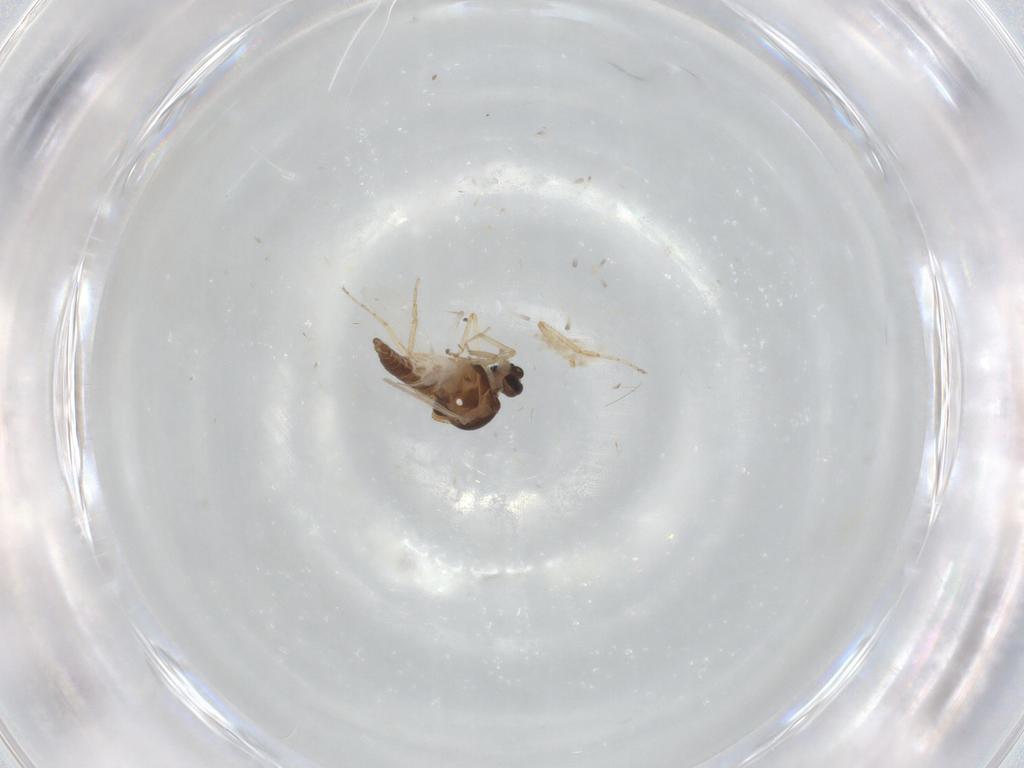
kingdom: Animalia
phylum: Arthropoda
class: Insecta
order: Diptera
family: Ceratopogonidae
